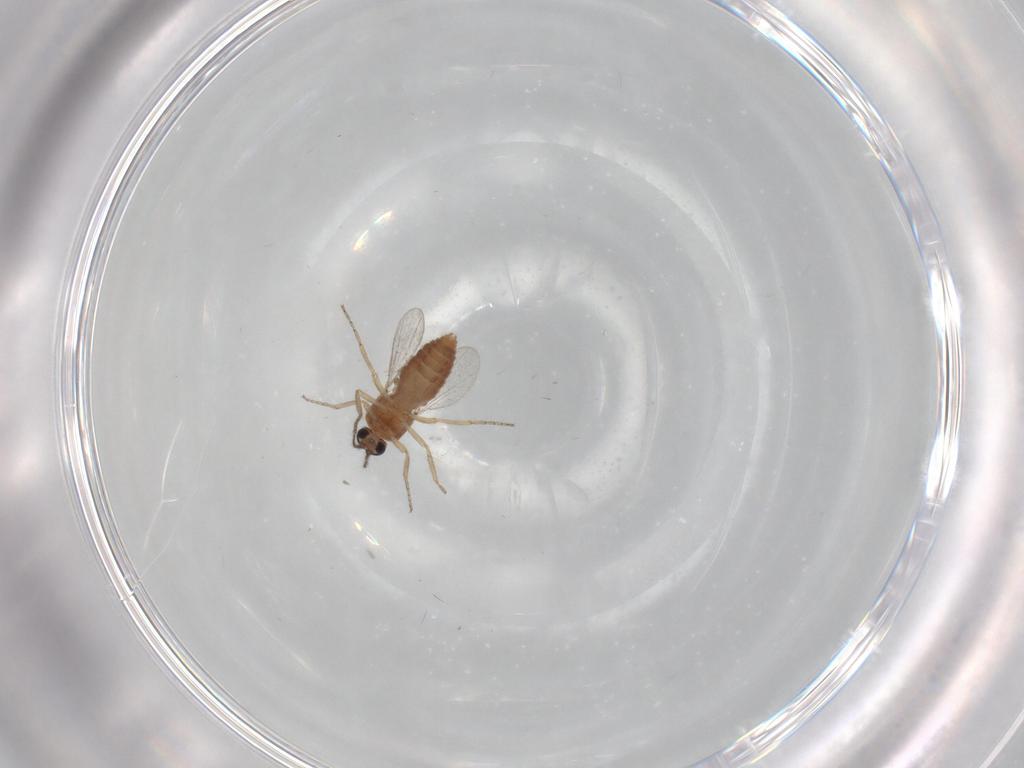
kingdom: Animalia
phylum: Arthropoda
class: Insecta
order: Diptera
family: Ceratopogonidae
